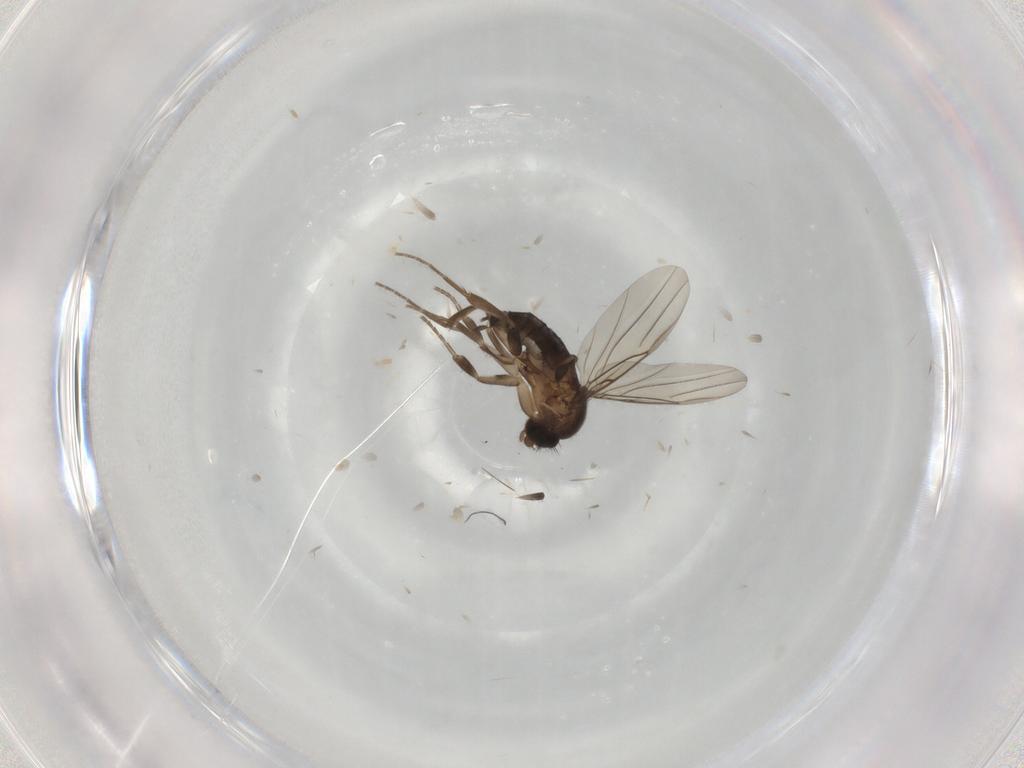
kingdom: Animalia
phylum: Arthropoda
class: Insecta
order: Diptera
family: Phoridae
